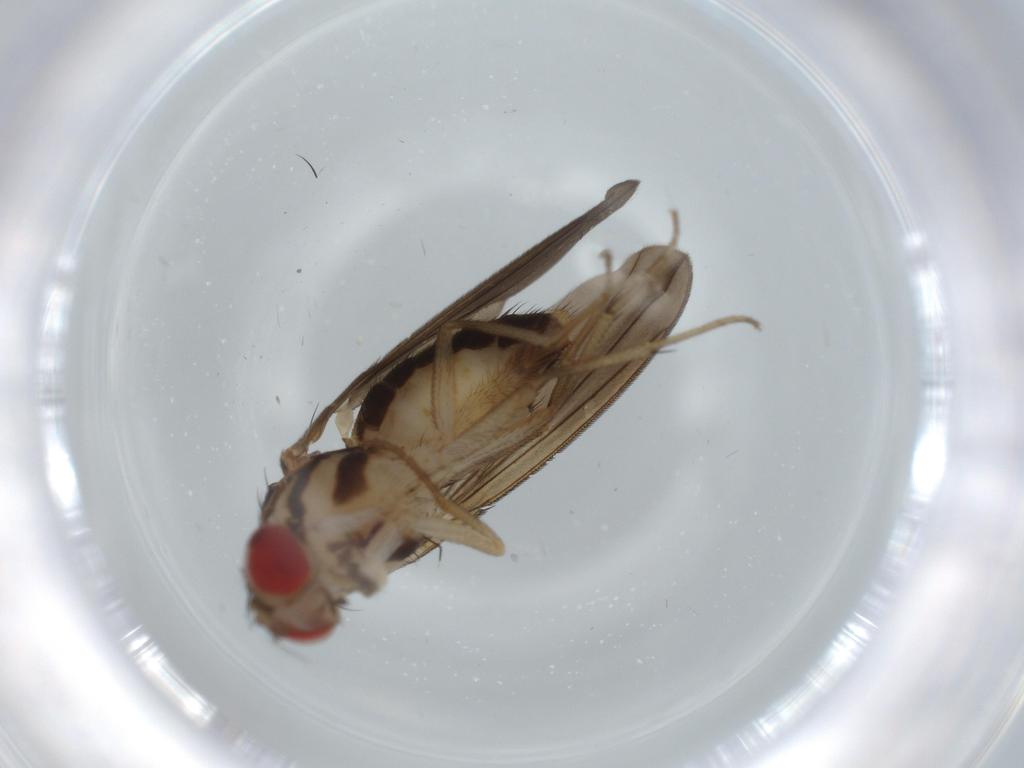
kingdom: Animalia
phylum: Arthropoda
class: Insecta
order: Diptera
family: Drosophilidae
